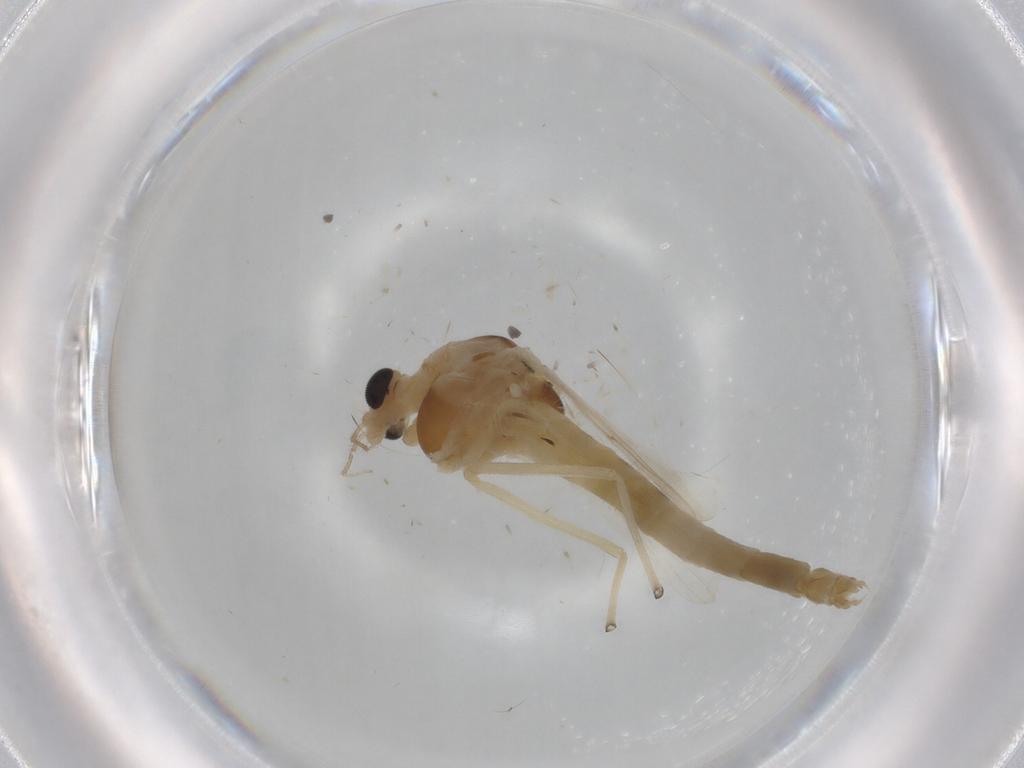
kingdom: Animalia
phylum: Arthropoda
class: Insecta
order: Diptera
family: Chironomidae
